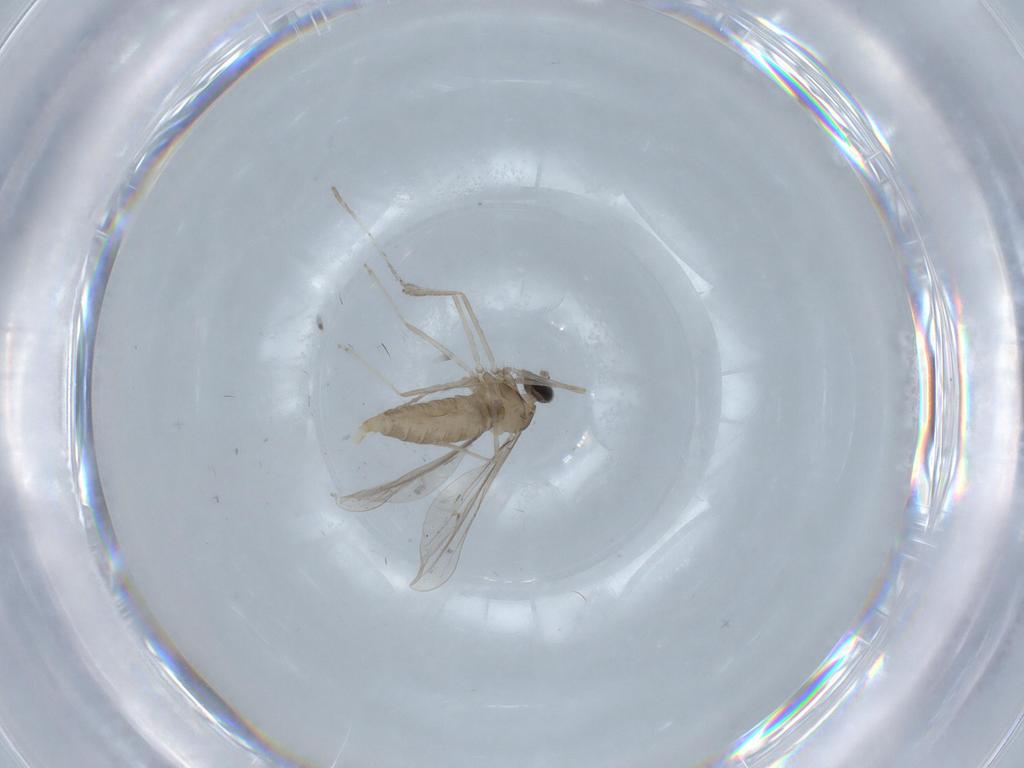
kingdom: Animalia
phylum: Arthropoda
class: Insecta
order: Diptera
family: Cecidomyiidae
